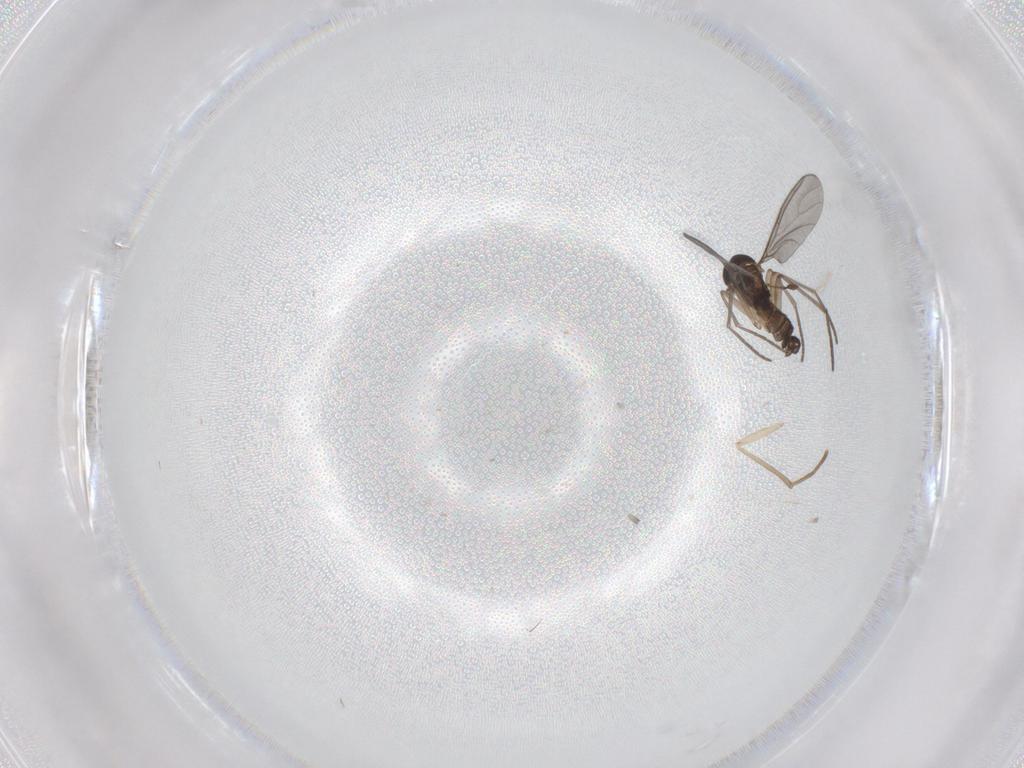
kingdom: Animalia
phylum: Arthropoda
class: Insecta
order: Diptera
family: Sciaridae
